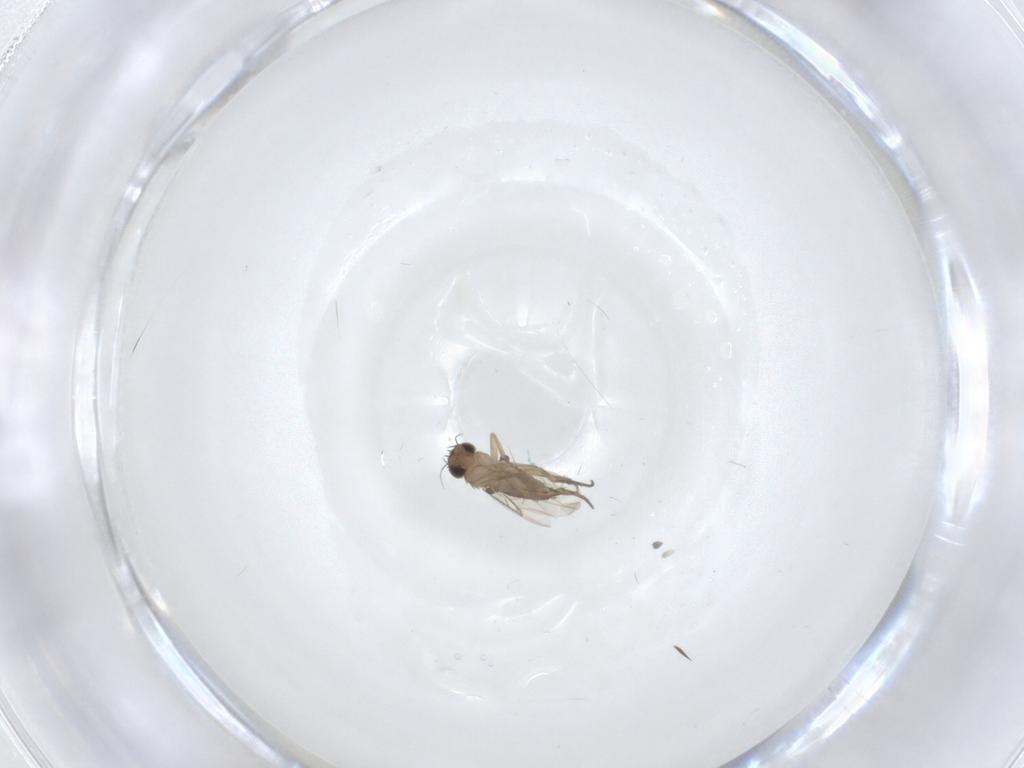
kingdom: Animalia
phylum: Arthropoda
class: Insecta
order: Diptera
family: Phoridae
